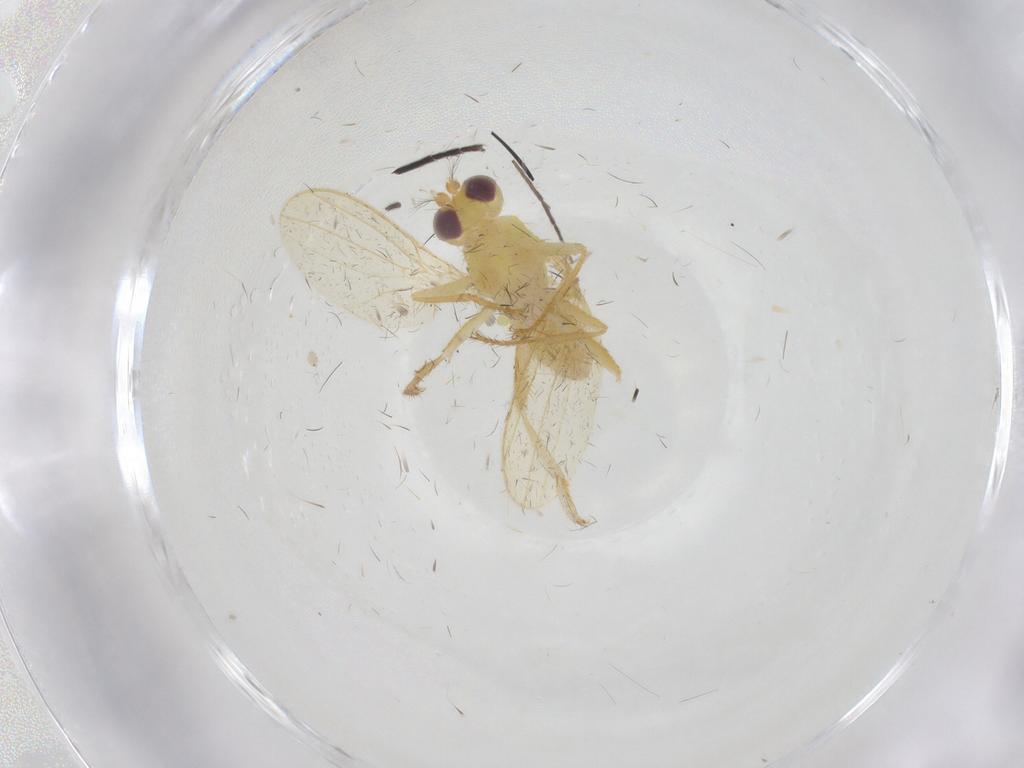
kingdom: Animalia
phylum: Arthropoda
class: Insecta
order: Diptera
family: Periscelididae
